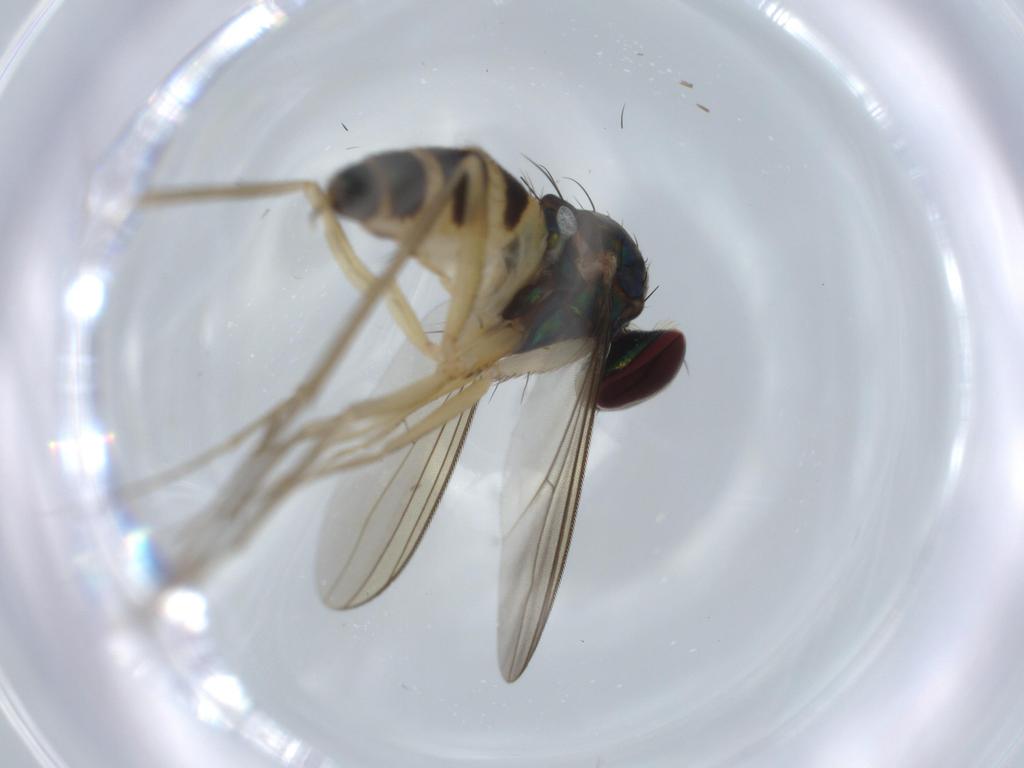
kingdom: Animalia
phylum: Arthropoda
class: Insecta
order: Diptera
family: Dolichopodidae
